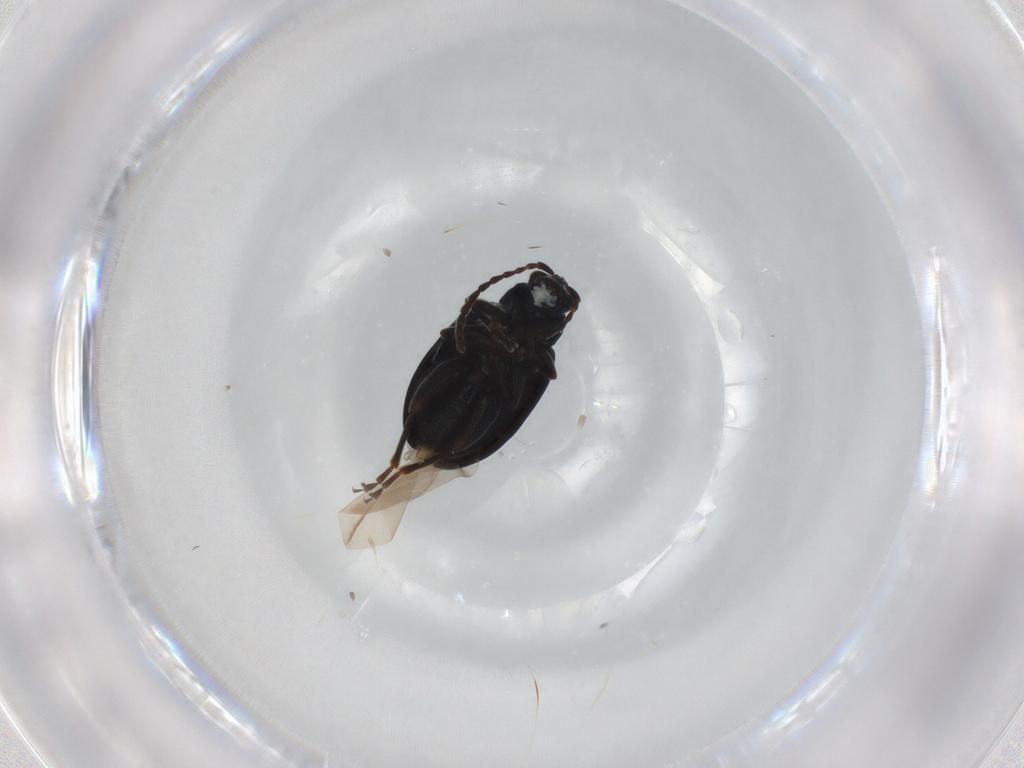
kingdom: Animalia
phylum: Arthropoda
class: Insecta
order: Coleoptera
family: Chrysomelidae
